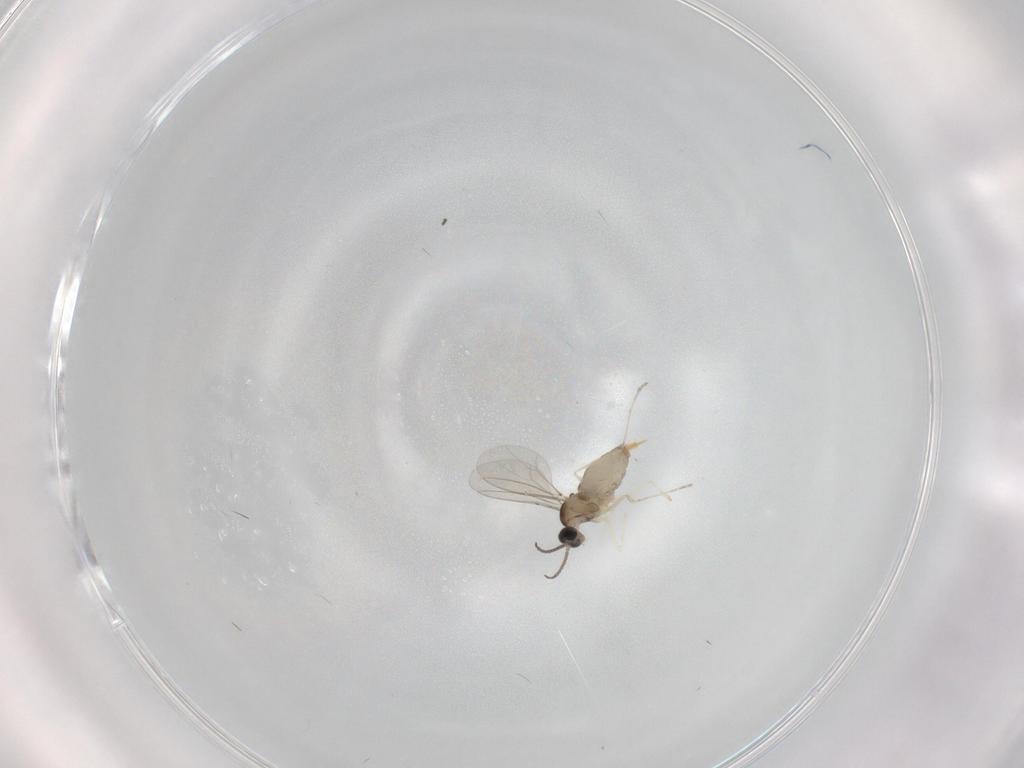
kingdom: Animalia
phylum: Arthropoda
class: Insecta
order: Diptera
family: Cecidomyiidae
